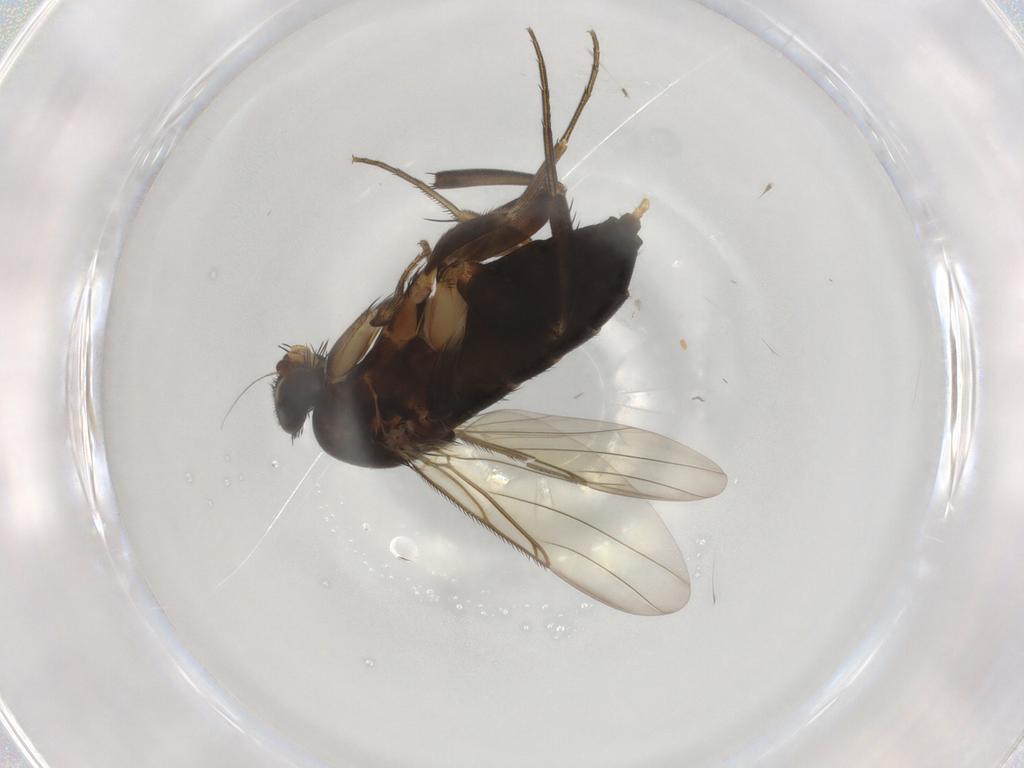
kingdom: Animalia
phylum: Arthropoda
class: Insecta
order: Diptera
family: Phoridae
